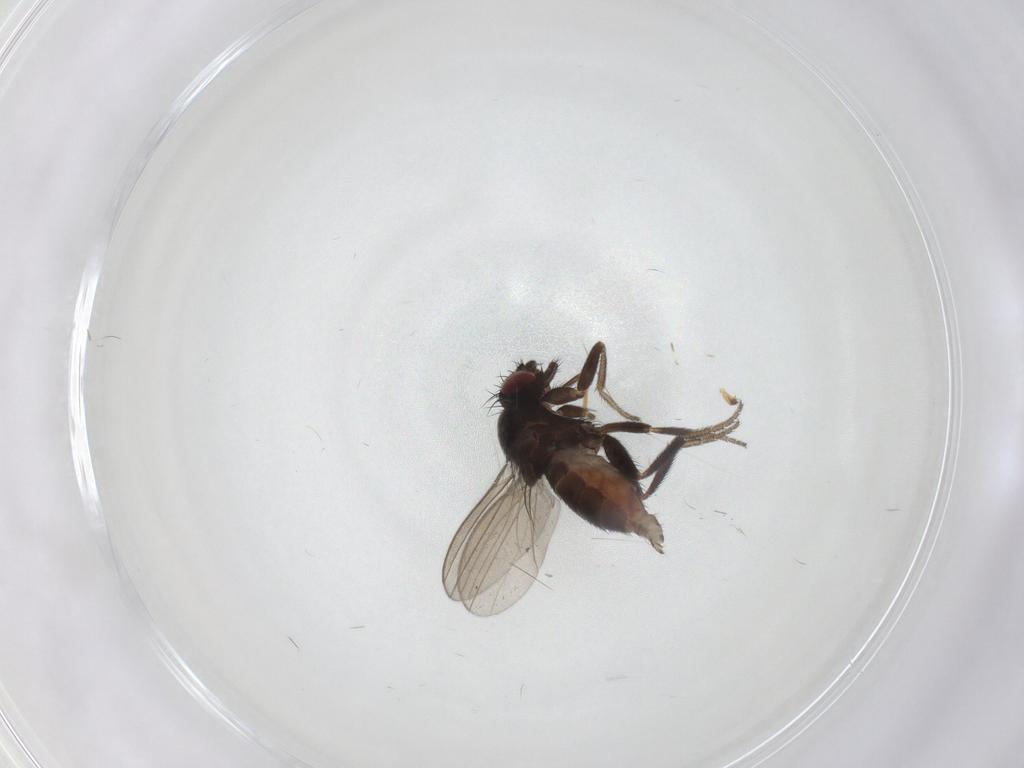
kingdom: Animalia
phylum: Arthropoda
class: Insecta
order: Diptera
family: Milichiidae
